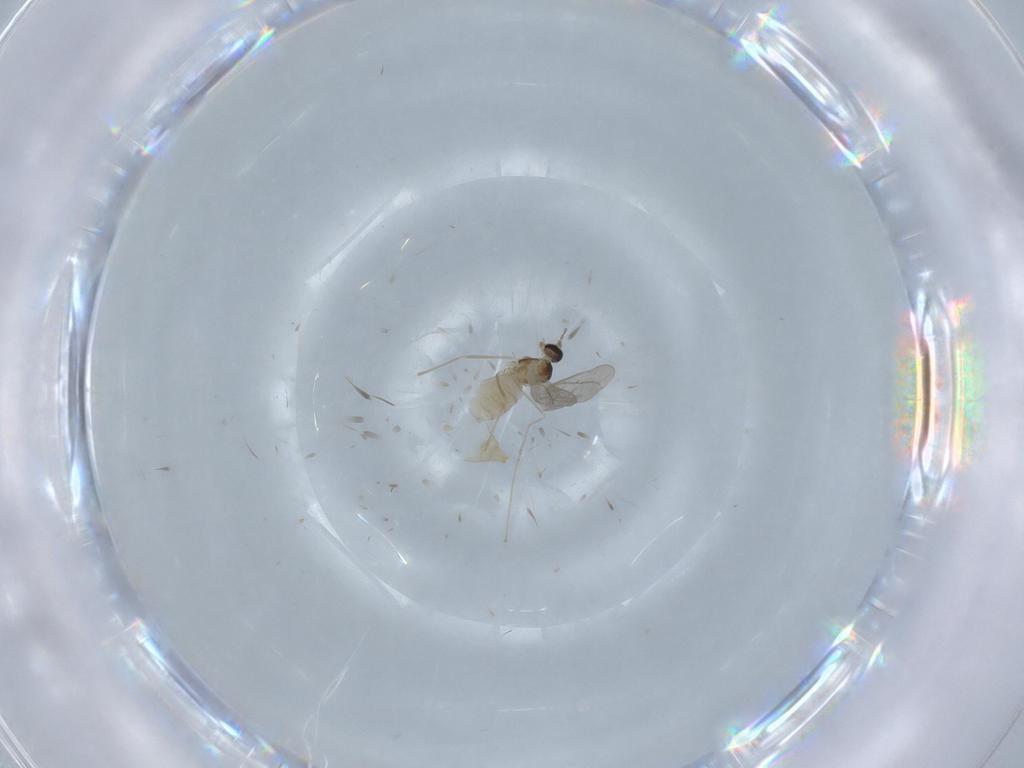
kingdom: Animalia
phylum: Arthropoda
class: Insecta
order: Diptera
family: Cecidomyiidae
